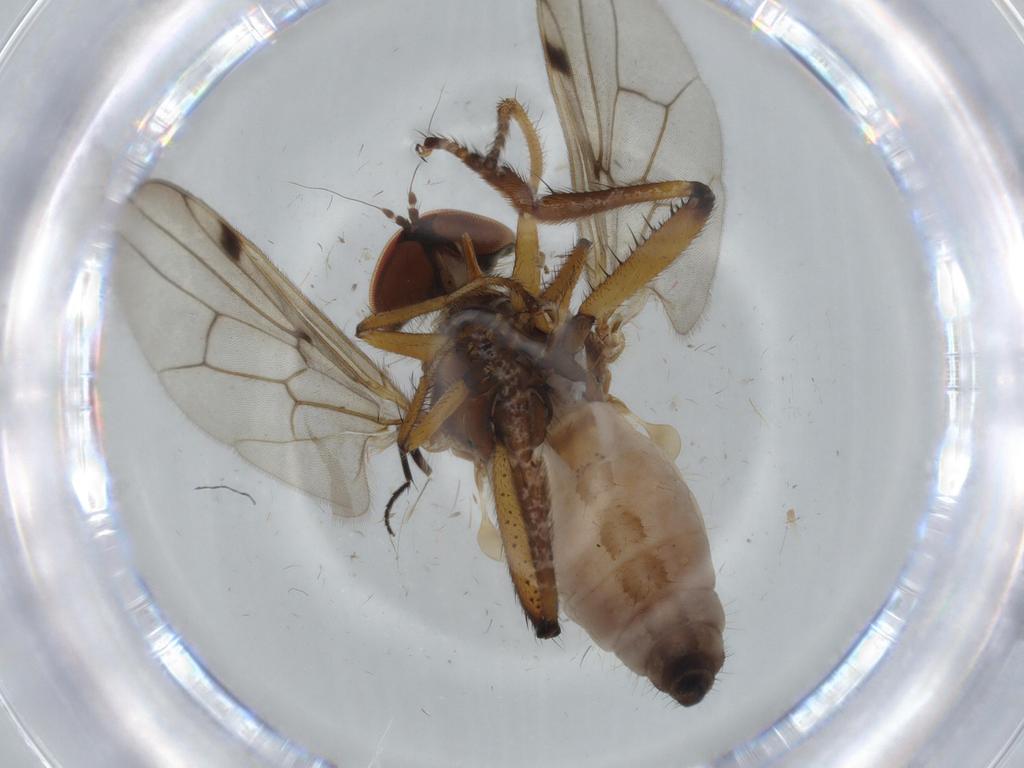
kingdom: Animalia
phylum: Arthropoda
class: Insecta
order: Diptera
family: Hybotidae
